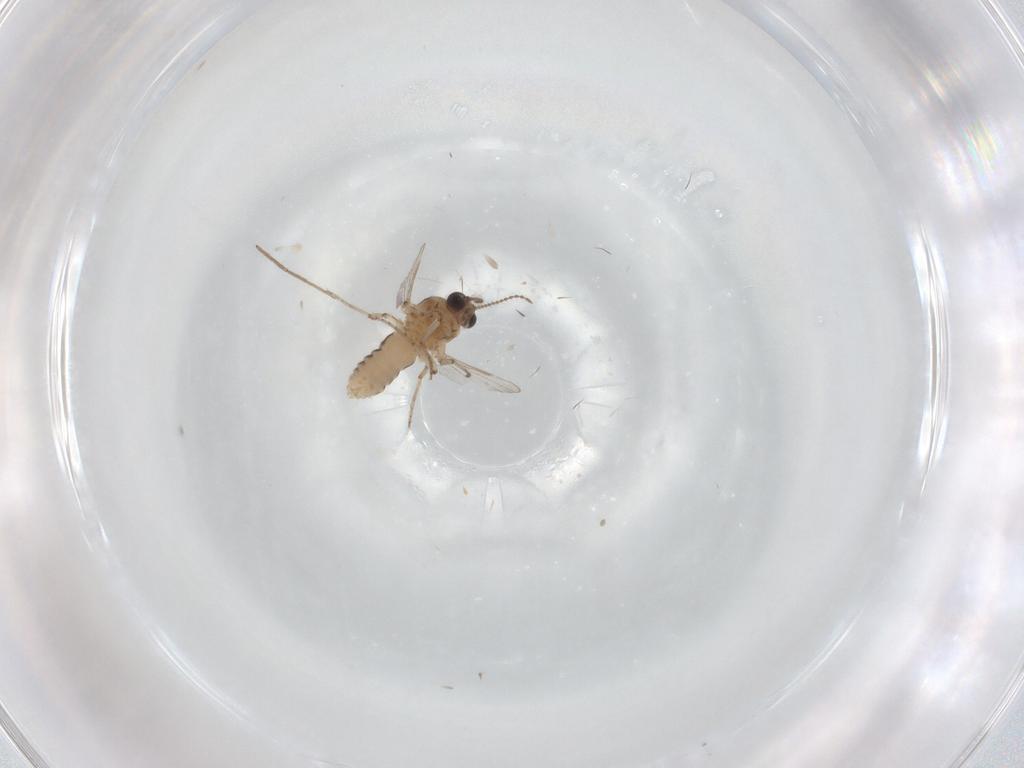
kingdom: Animalia
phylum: Arthropoda
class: Insecta
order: Diptera
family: Ceratopogonidae
